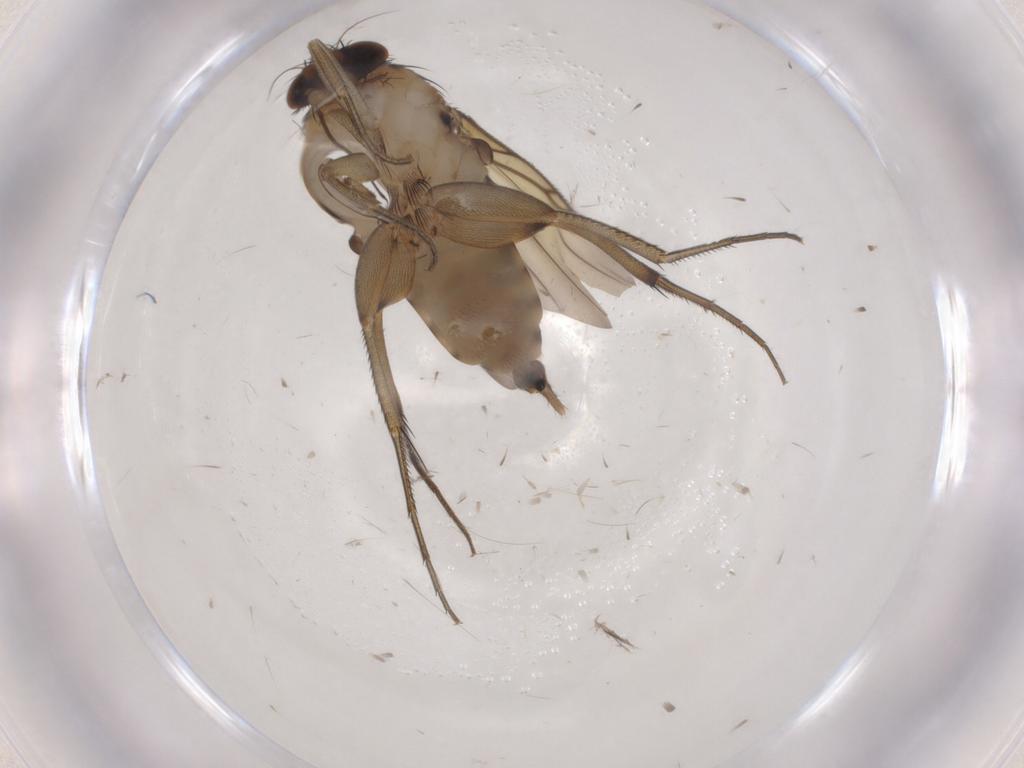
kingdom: Animalia
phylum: Arthropoda
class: Insecta
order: Diptera
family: Phoridae
